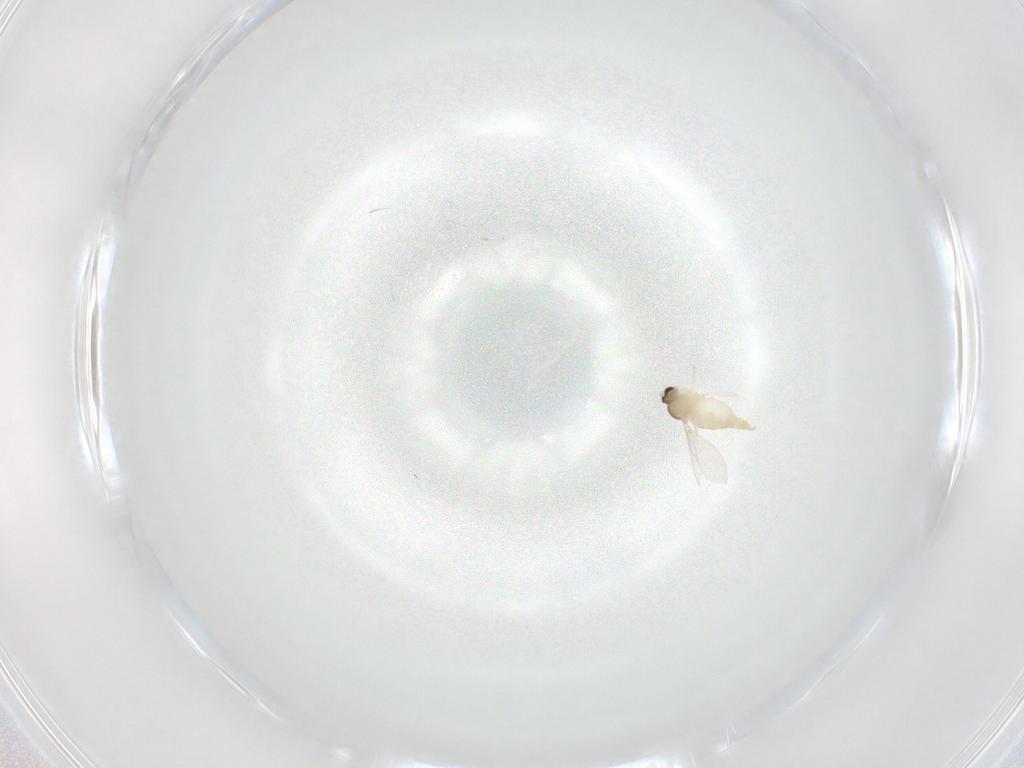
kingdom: Animalia
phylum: Arthropoda
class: Insecta
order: Diptera
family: Cecidomyiidae
